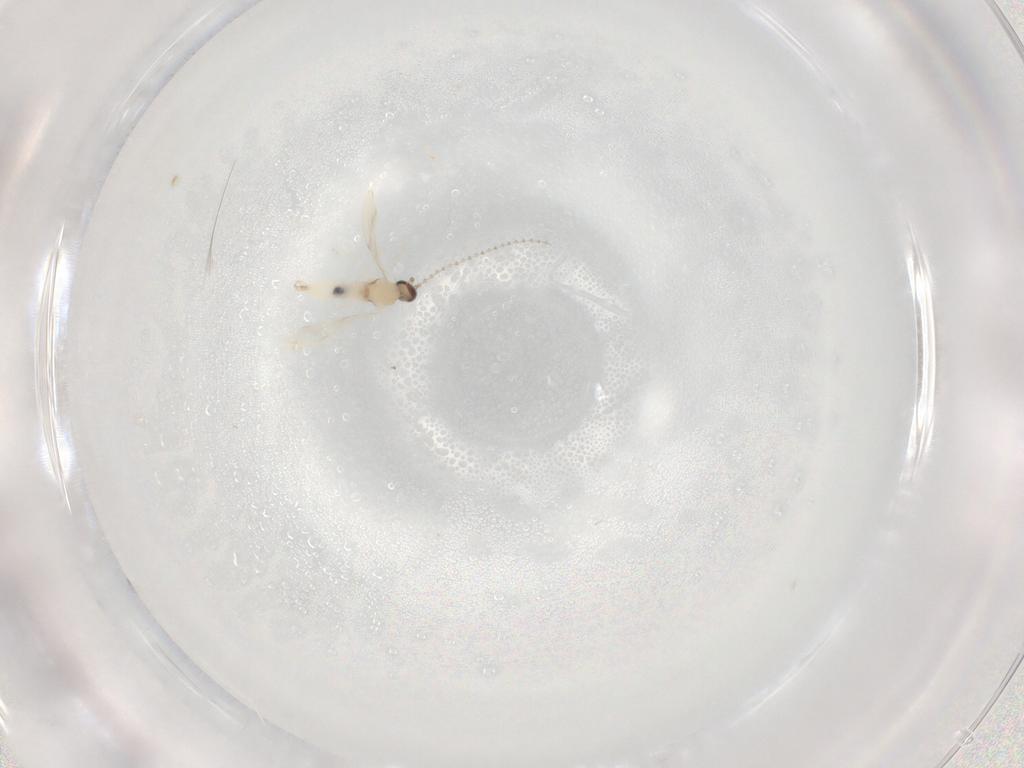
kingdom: Animalia
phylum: Arthropoda
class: Insecta
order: Diptera
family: Cecidomyiidae
